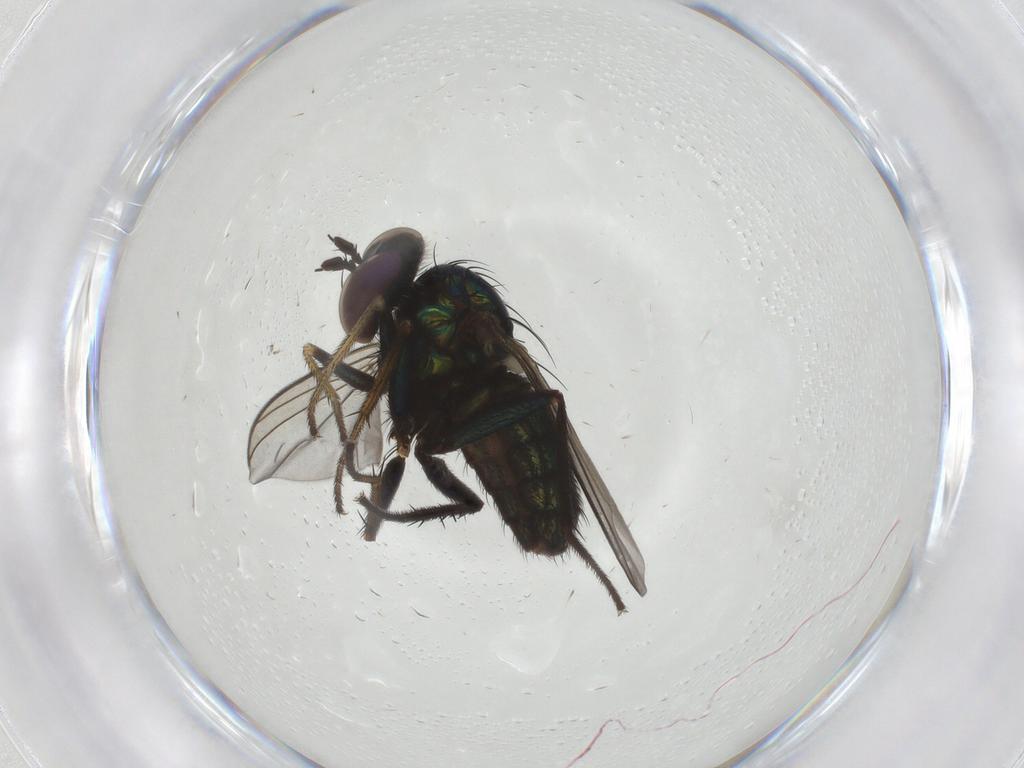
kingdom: Animalia
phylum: Arthropoda
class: Insecta
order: Diptera
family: Dolichopodidae
